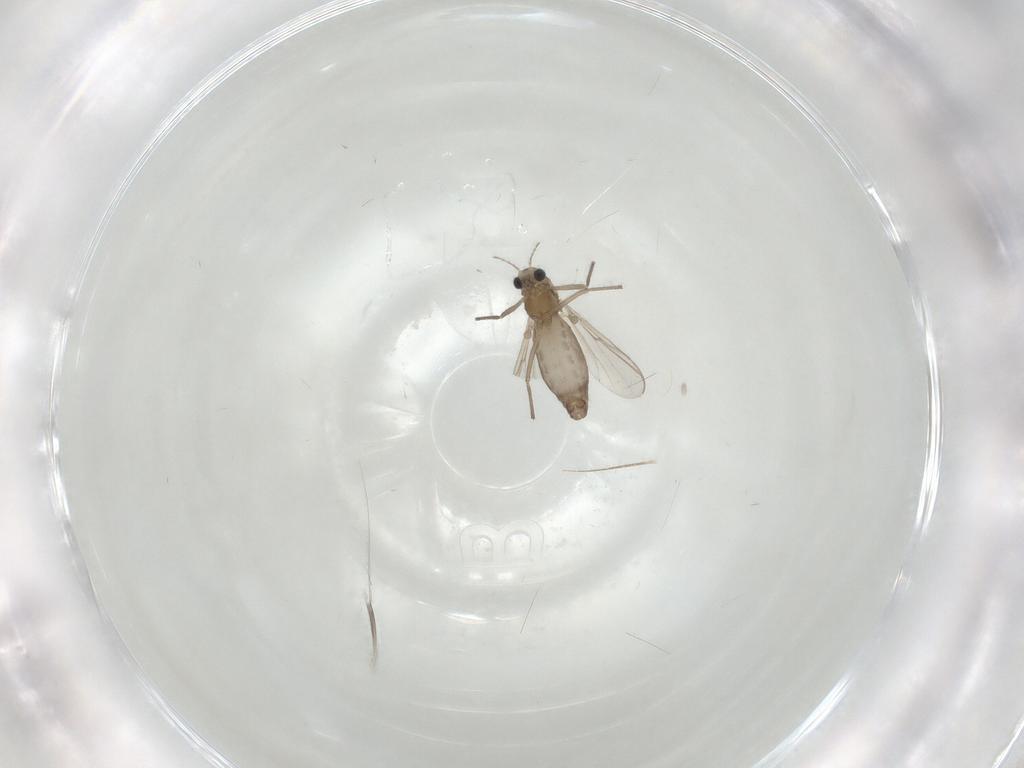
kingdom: Animalia
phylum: Arthropoda
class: Insecta
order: Diptera
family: Chironomidae
